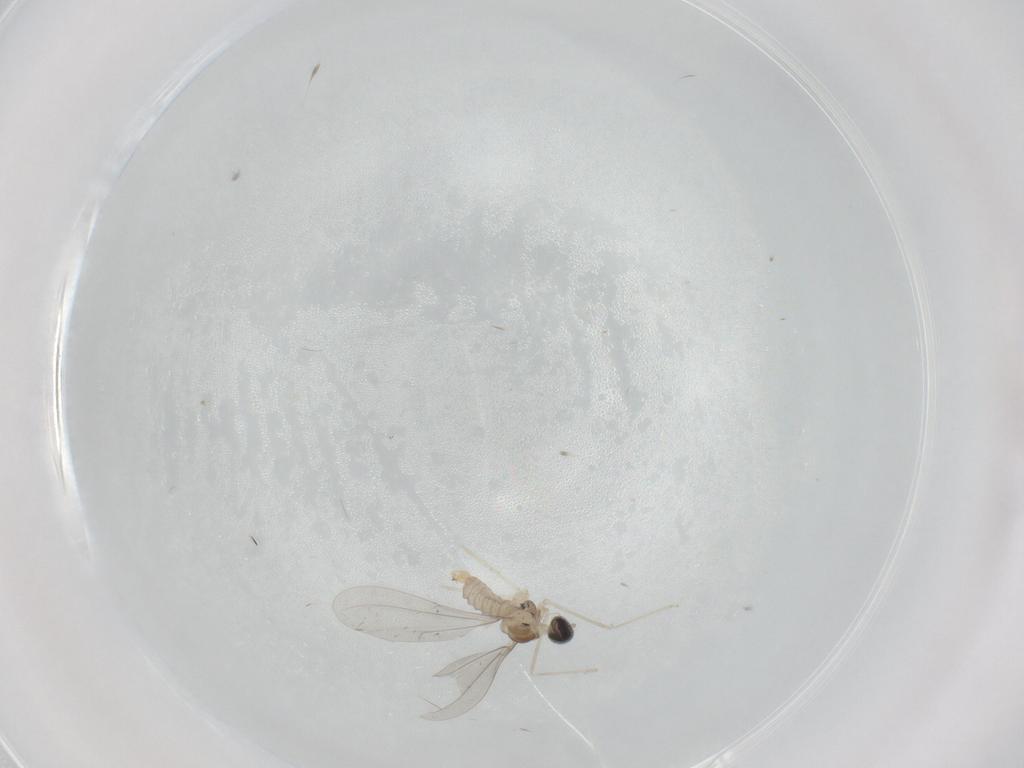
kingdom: Animalia
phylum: Arthropoda
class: Insecta
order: Diptera
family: Cecidomyiidae
